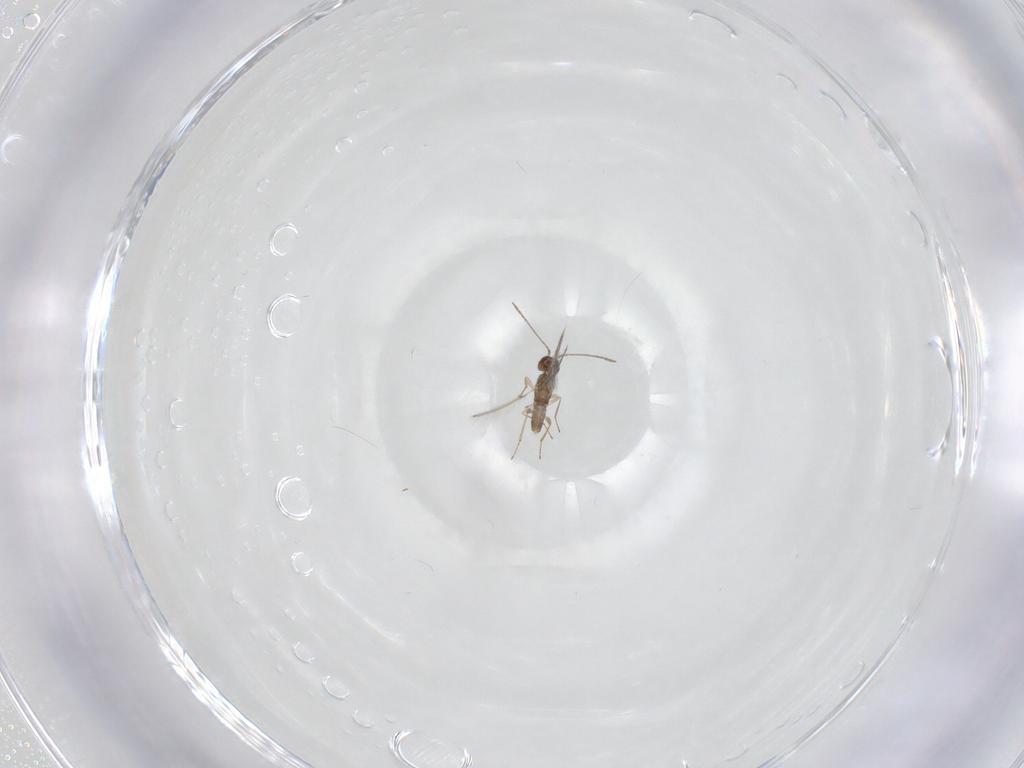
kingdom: Animalia
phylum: Arthropoda
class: Insecta
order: Hymenoptera
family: Mymaridae
